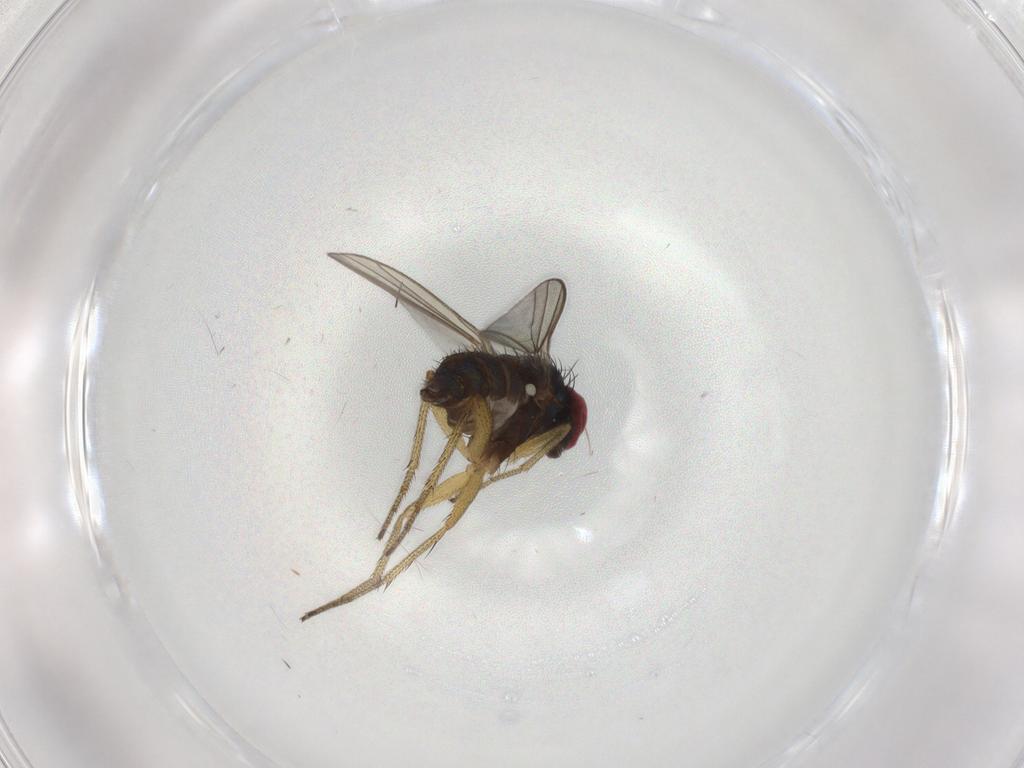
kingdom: Animalia
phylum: Arthropoda
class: Insecta
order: Diptera
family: Dolichopodidae
